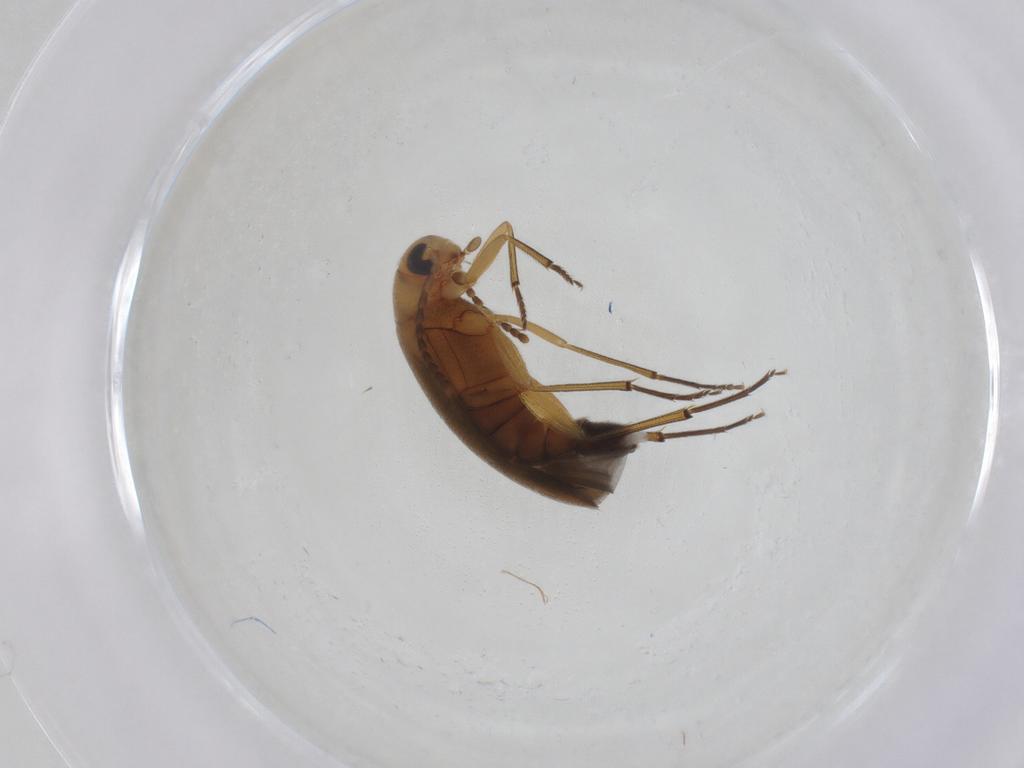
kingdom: Animalia
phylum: Arthropoda
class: Insecta
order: Coleoptera
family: Melandryidae
